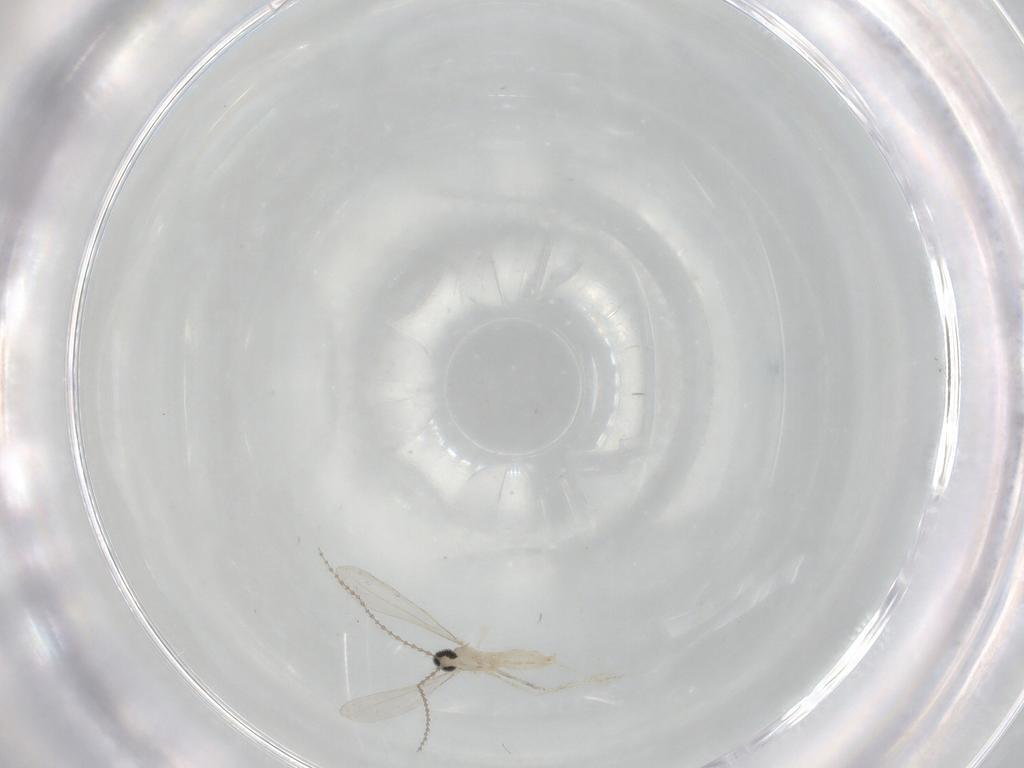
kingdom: Animalia
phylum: Arthropoda
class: Insecta
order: Diptera
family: Cecidomyiidae
